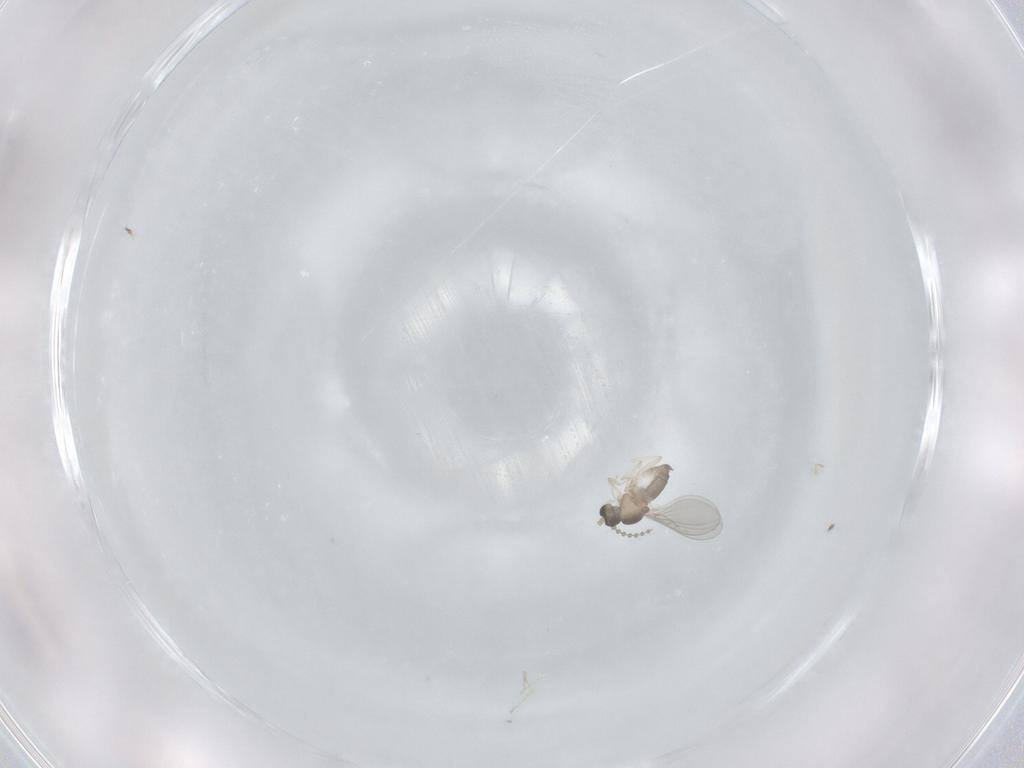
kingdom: Animalia
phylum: Arthropoda
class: Insecta
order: Diptera
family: Cecidomyiidae
